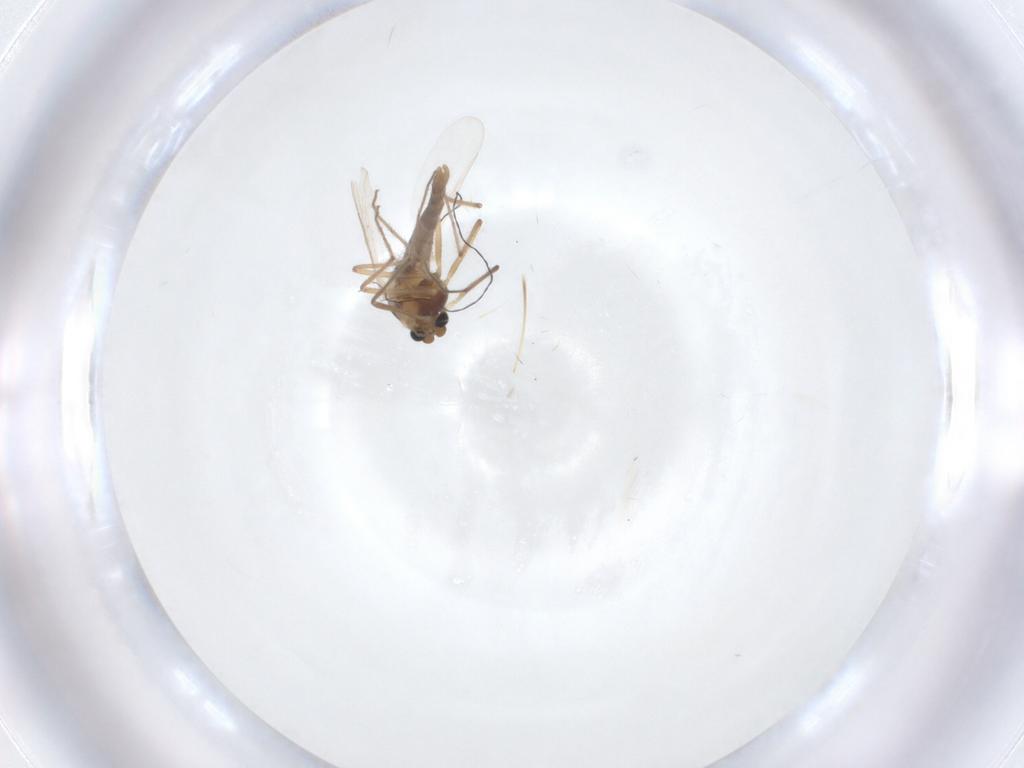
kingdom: Animalia
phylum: Arthropoda
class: Insecta
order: Diptera
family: Chironomidae
